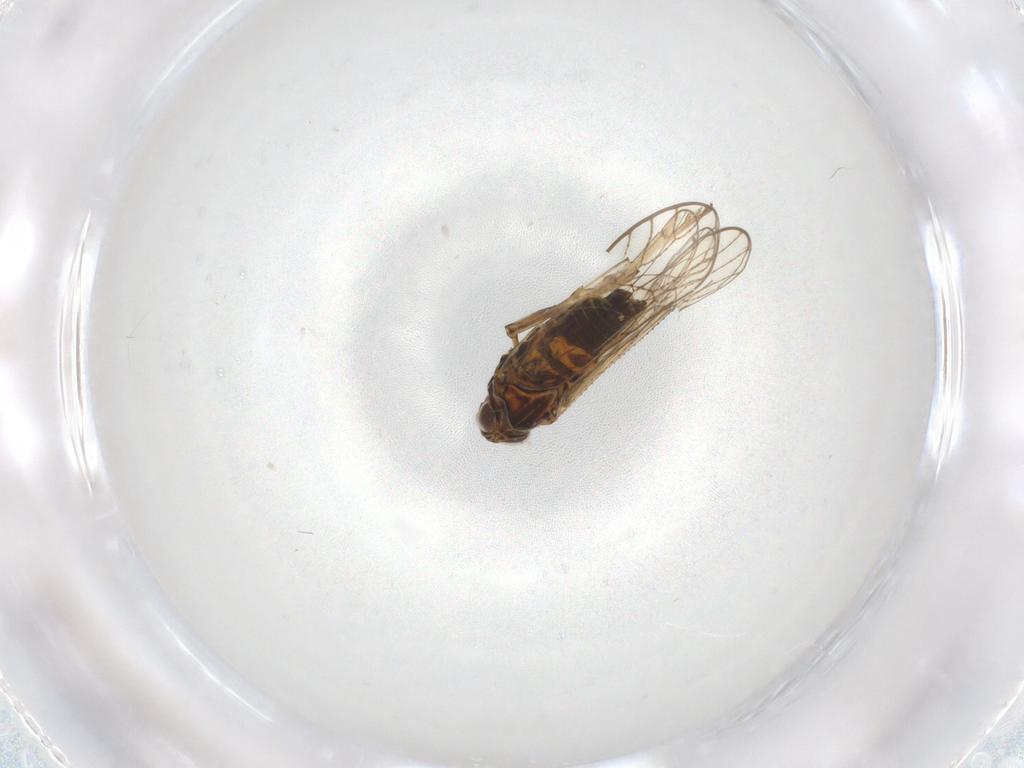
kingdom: Animalia
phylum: Arthropoda
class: Insecta
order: Hemiptera
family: Delphacidae
